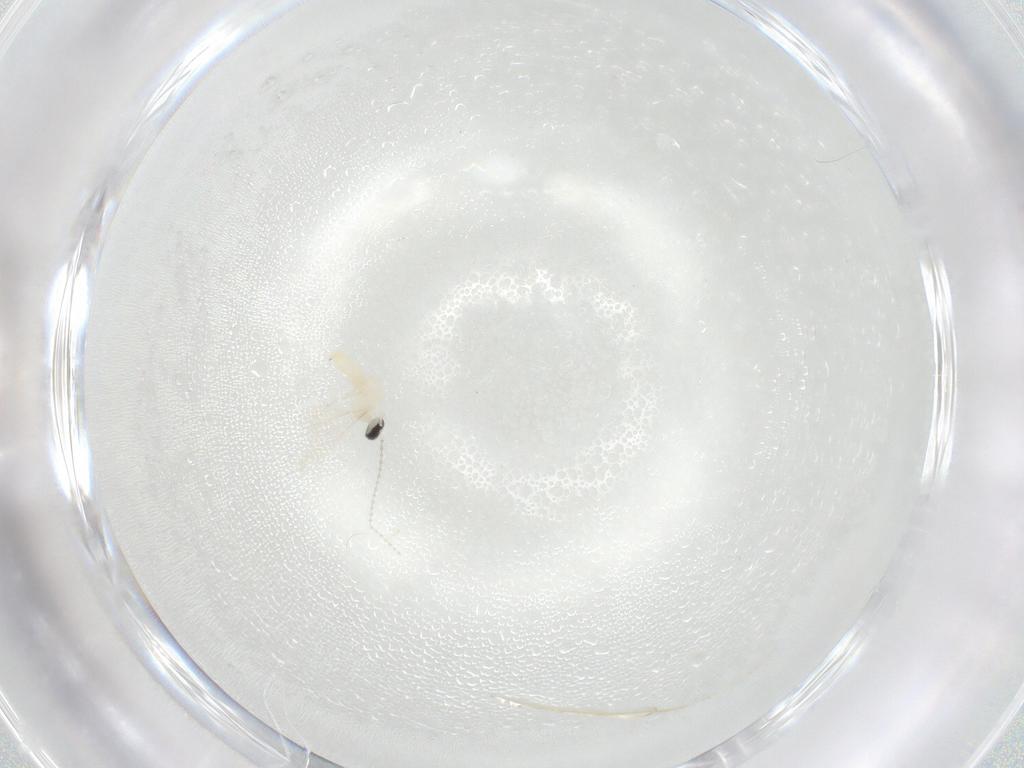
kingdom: Animalia
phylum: Arthropoda
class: Insecta
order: Diptera
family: Cecidomyiidae
